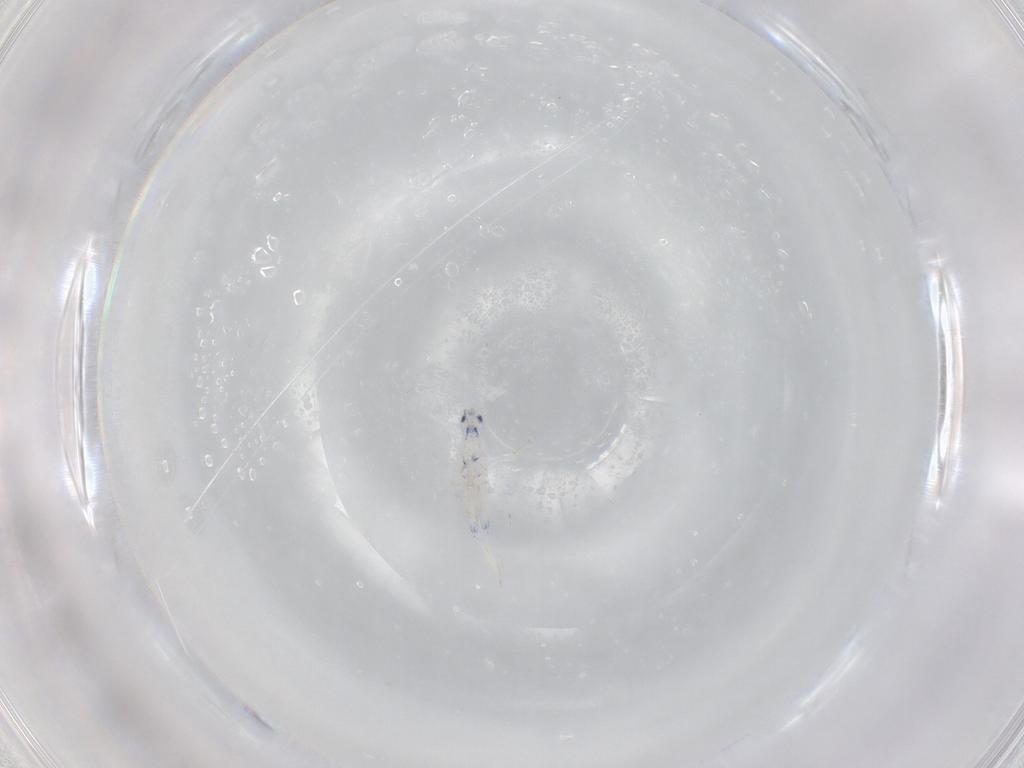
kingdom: Animalia
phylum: Arthropoda
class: Collembola
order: Entomobryomorpha
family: Entomobryidae
